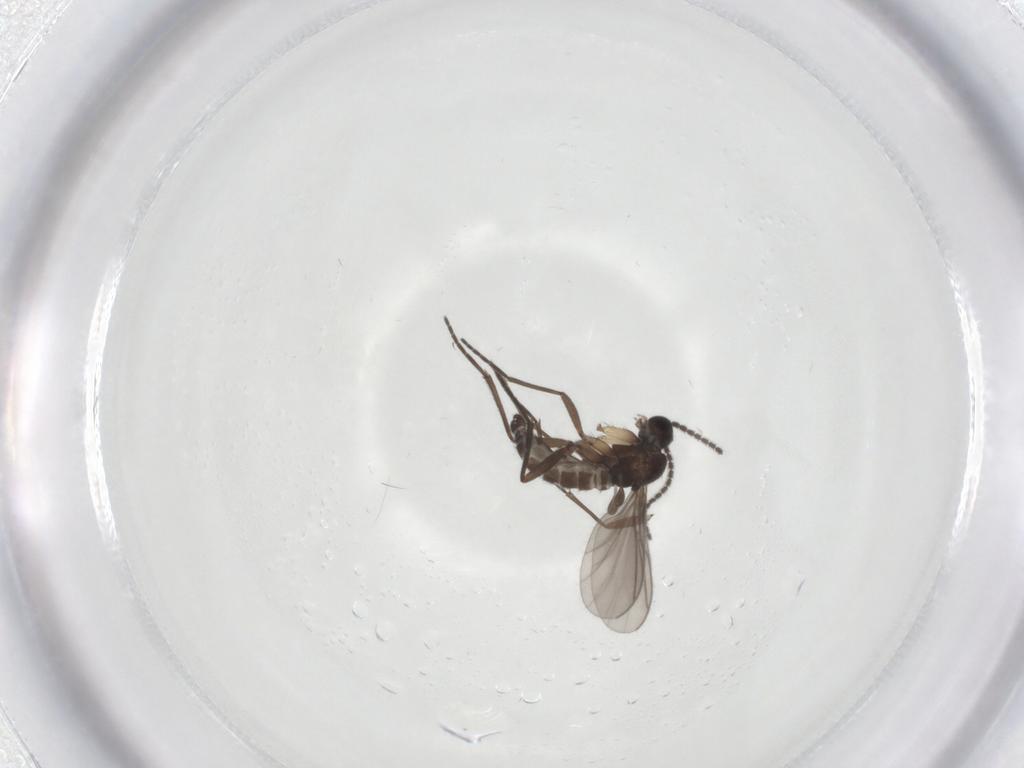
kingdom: Animalia
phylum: Arthropoda
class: Insecta
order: Diptera
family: Sciaridae
